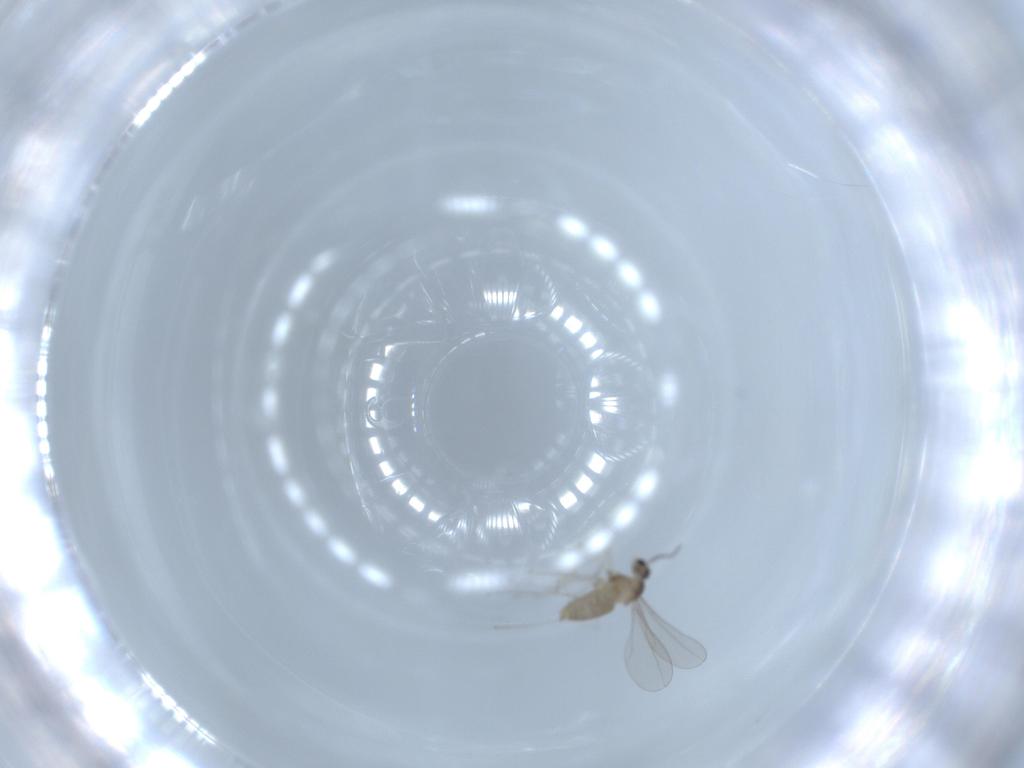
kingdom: Animalia
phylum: Arthropoda
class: Insecta
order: Diptera
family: Cecidomyiidae
